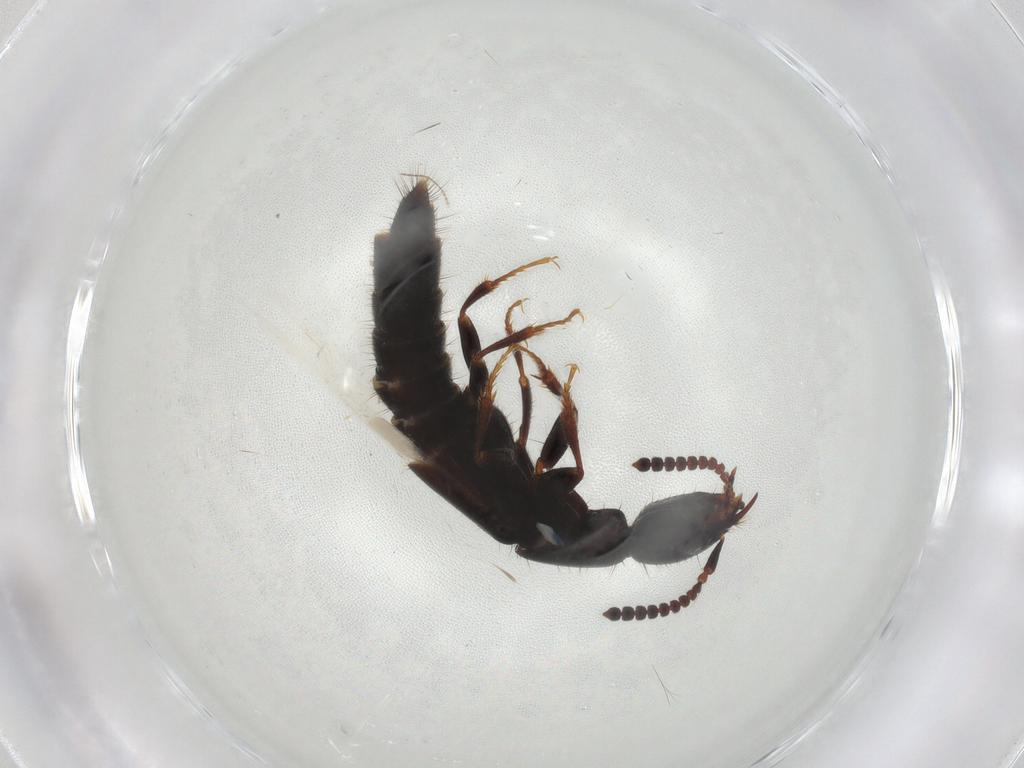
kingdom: Animalia
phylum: Arthropoda
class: Insecta
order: Coleoptera
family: Staphylinidae
